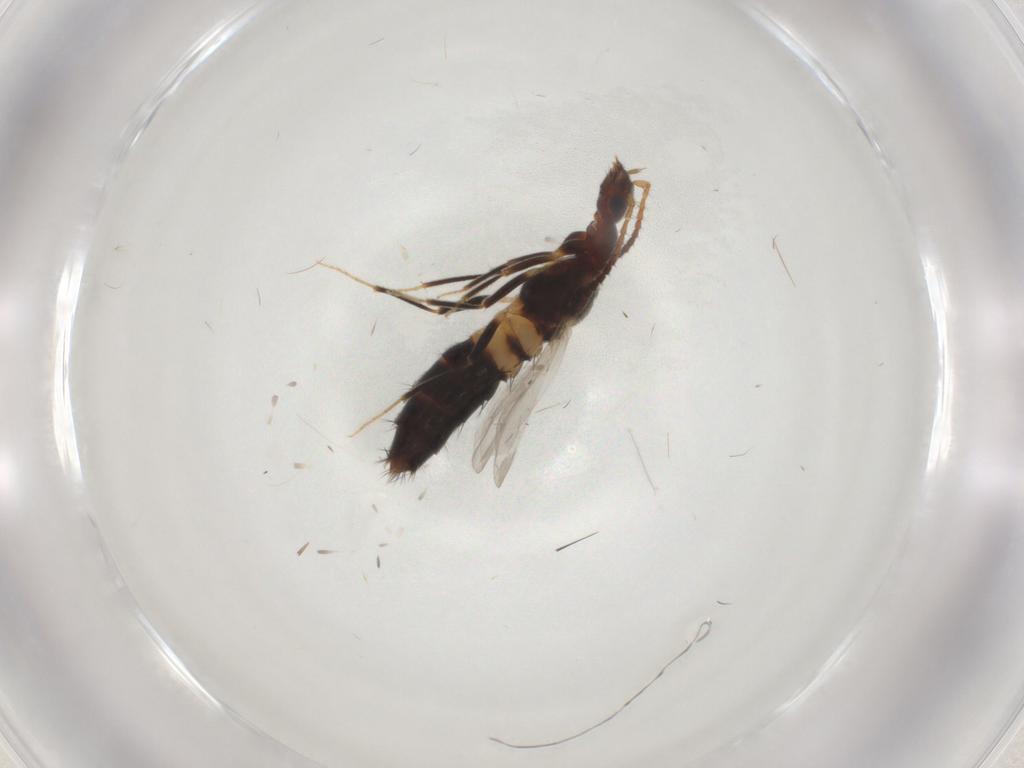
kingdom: Animalia
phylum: Arthropoda
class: Insecta
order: Coleoptera
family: Staphylinidae
